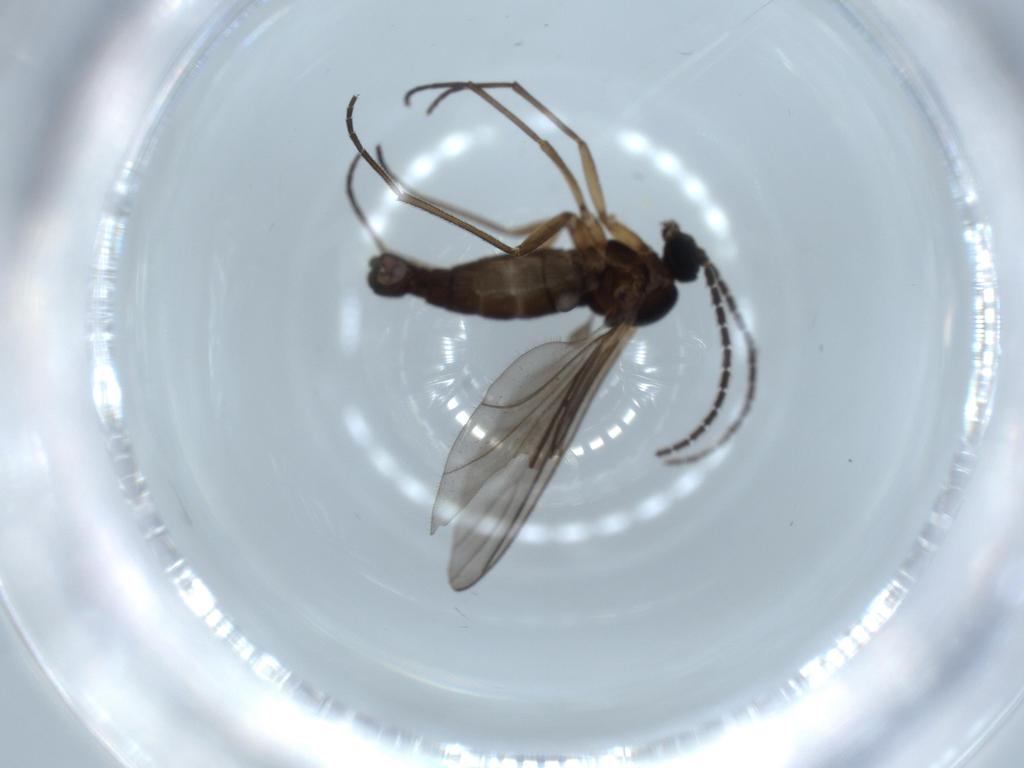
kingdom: Animalia
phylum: Arthropoda
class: Insecta
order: Diptera
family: Sciaridae
